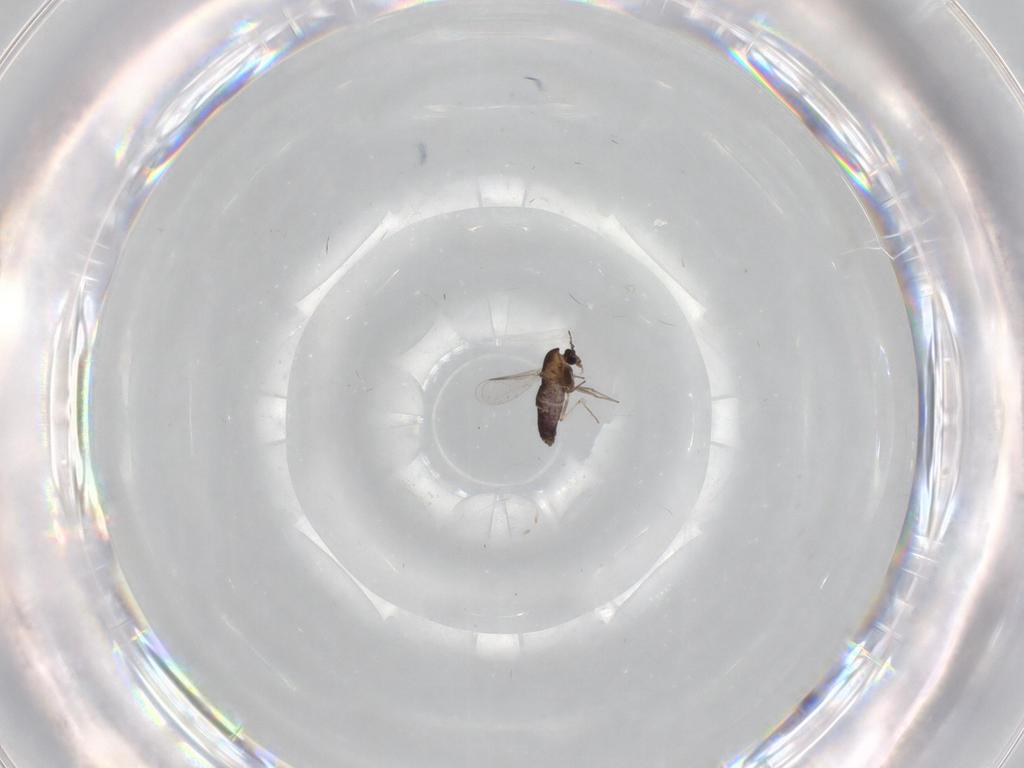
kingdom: Animalia
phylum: Arthropoda
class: Insecta
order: Diptera
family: Chironomidae
